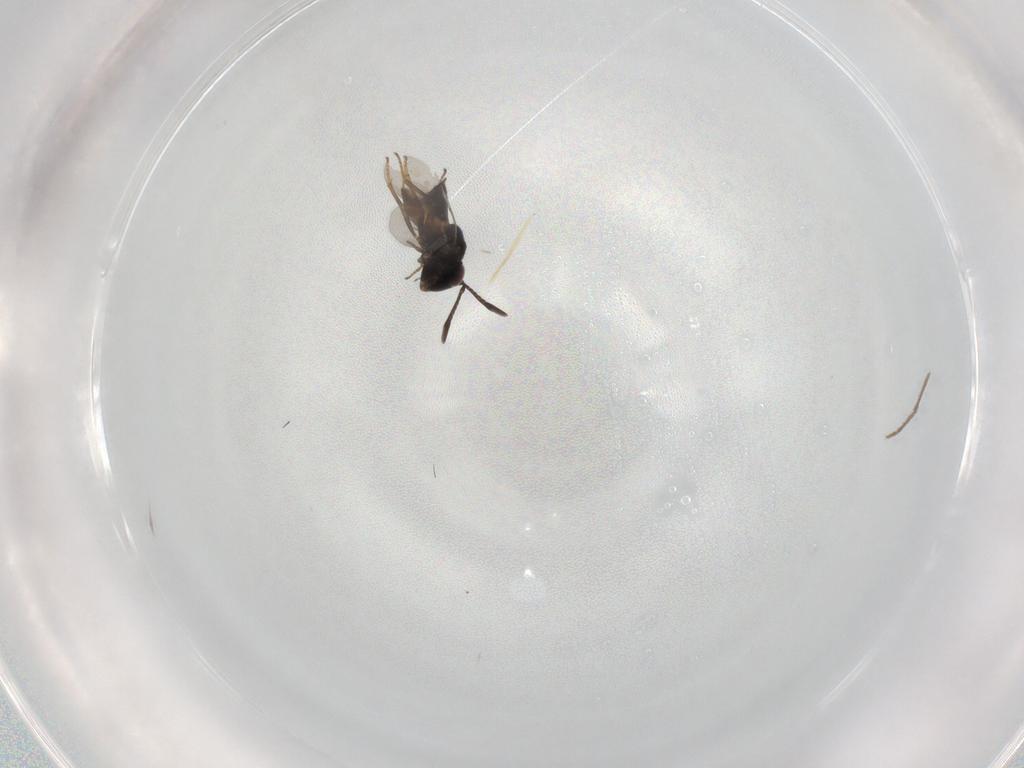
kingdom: Animalia
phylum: Arthropoda
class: Insecta
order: Hymenoptera
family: Encyrtidae
